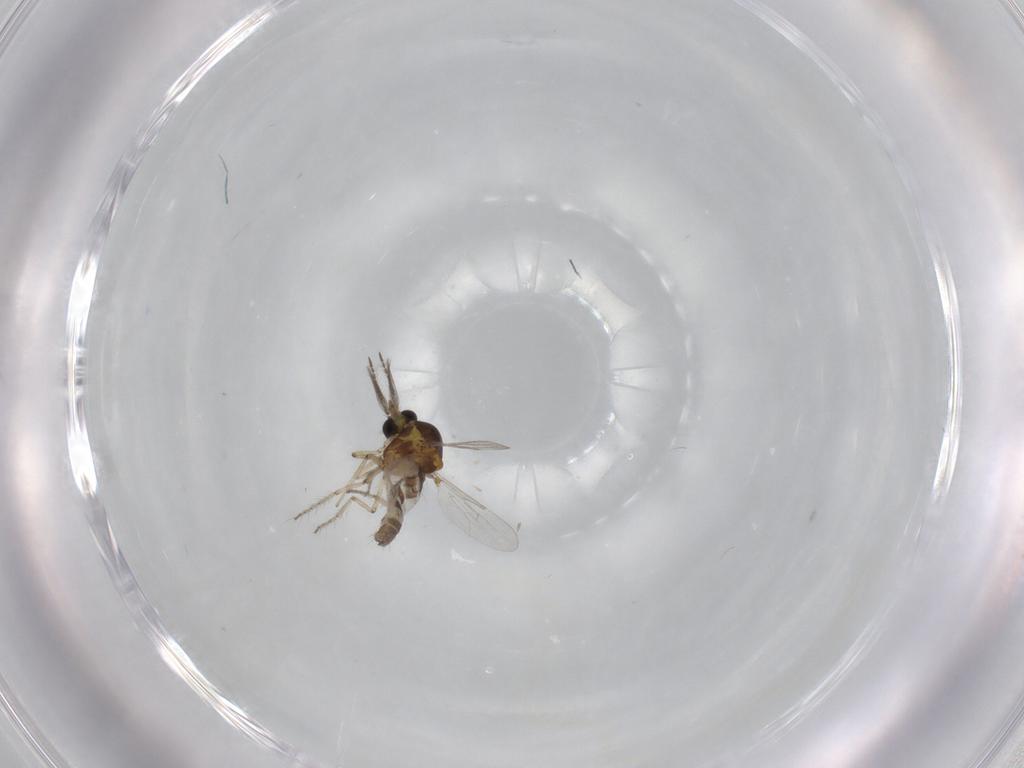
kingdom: Animalia
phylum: Arthropoda
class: Insecta
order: Diptera
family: Ceratopogonidae
